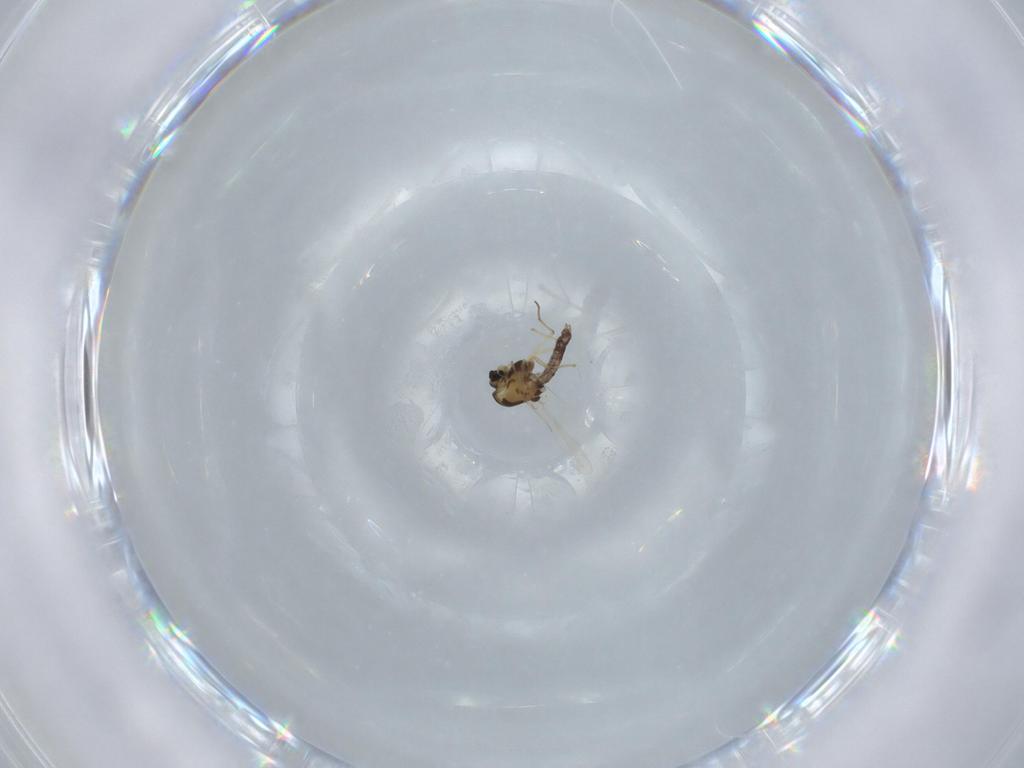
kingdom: Animalia
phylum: Arthropoda
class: Insecta
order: Diptera
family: Chironomidae
